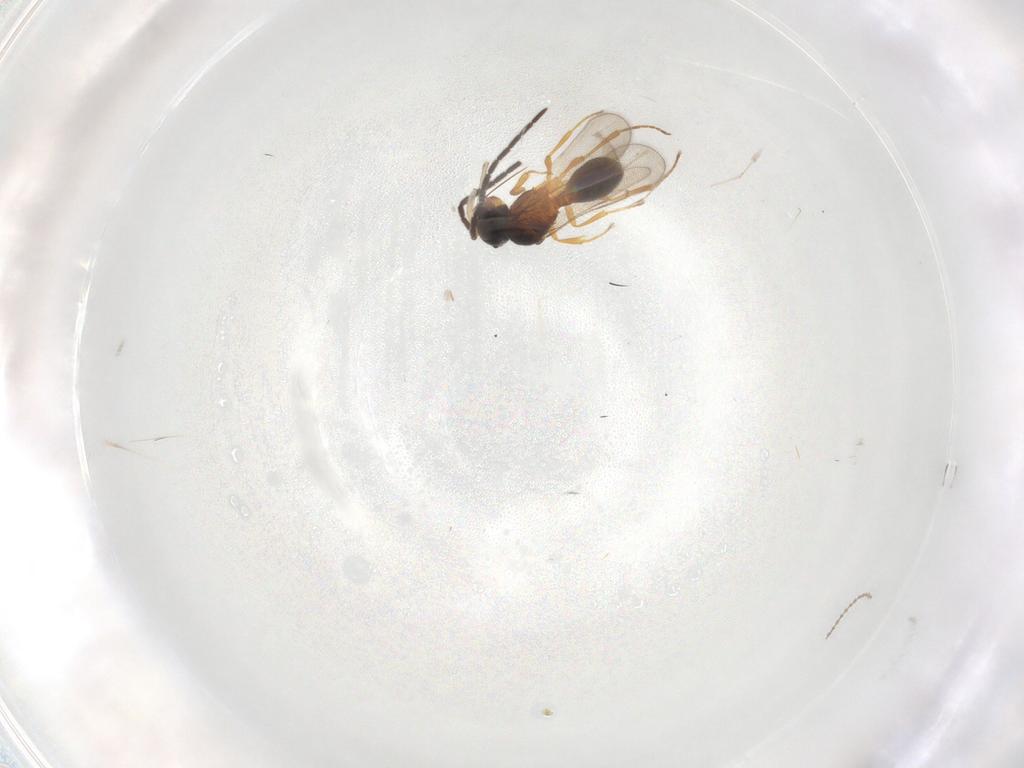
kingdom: Animalia
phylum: Arthropoda
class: Insecta
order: Hymenoptera
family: Scelionidae
